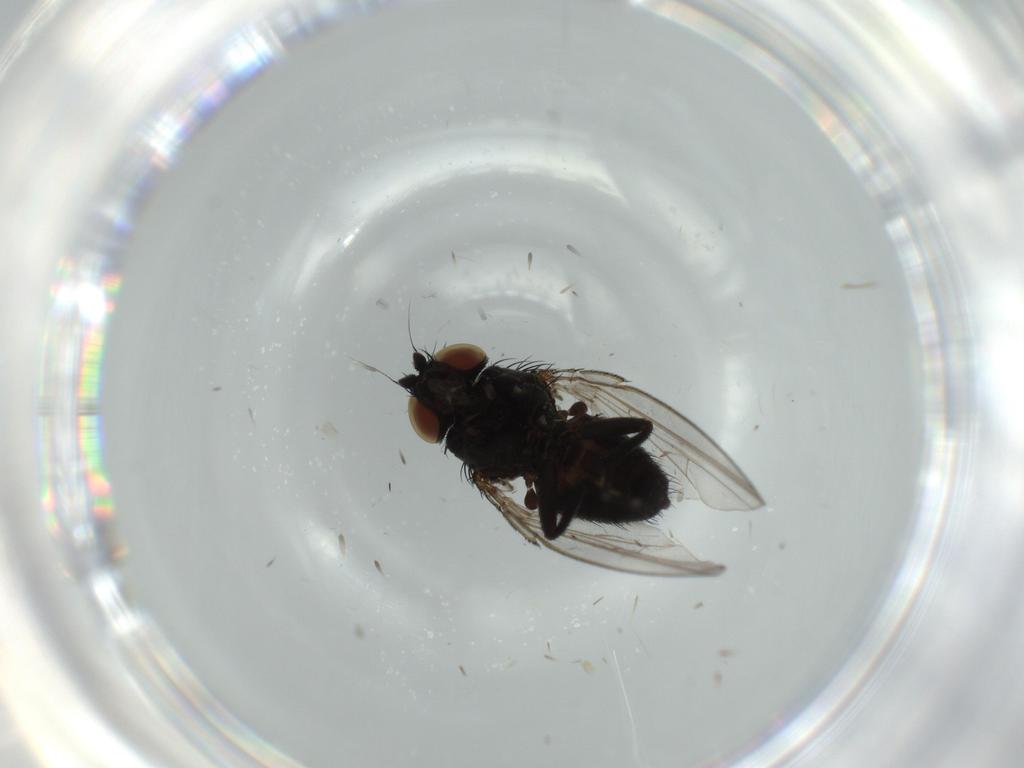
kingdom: Animalia
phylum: Arthropoda
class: Insecta
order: Diptera
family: Milichiidae
